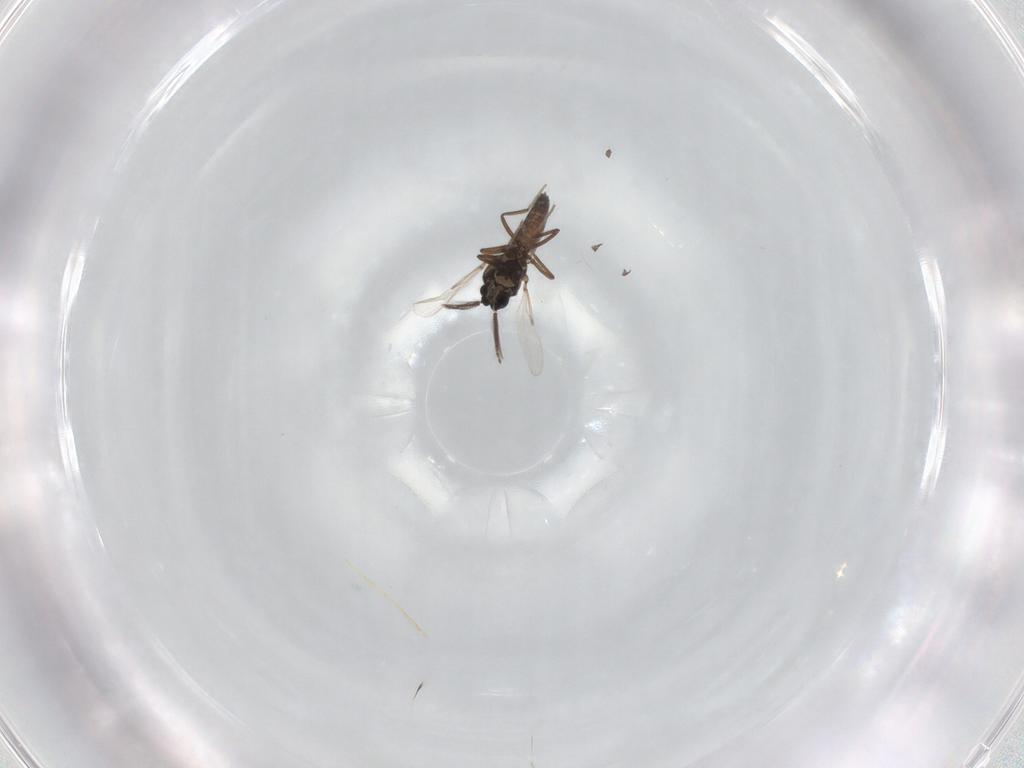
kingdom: Animalia
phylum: Arthropoda
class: Insecta
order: Diptera
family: Ceratopogonidae
